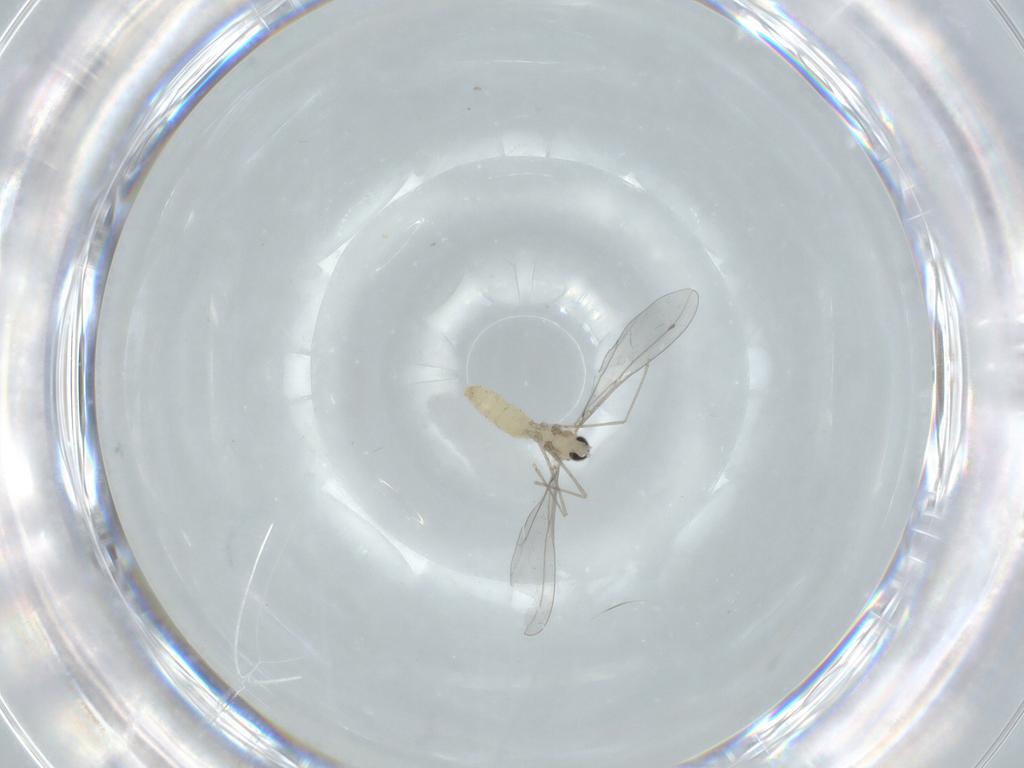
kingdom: Animalia
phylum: Arthropoda
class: Insecta
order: Diptera
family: Cecidomyiidae
